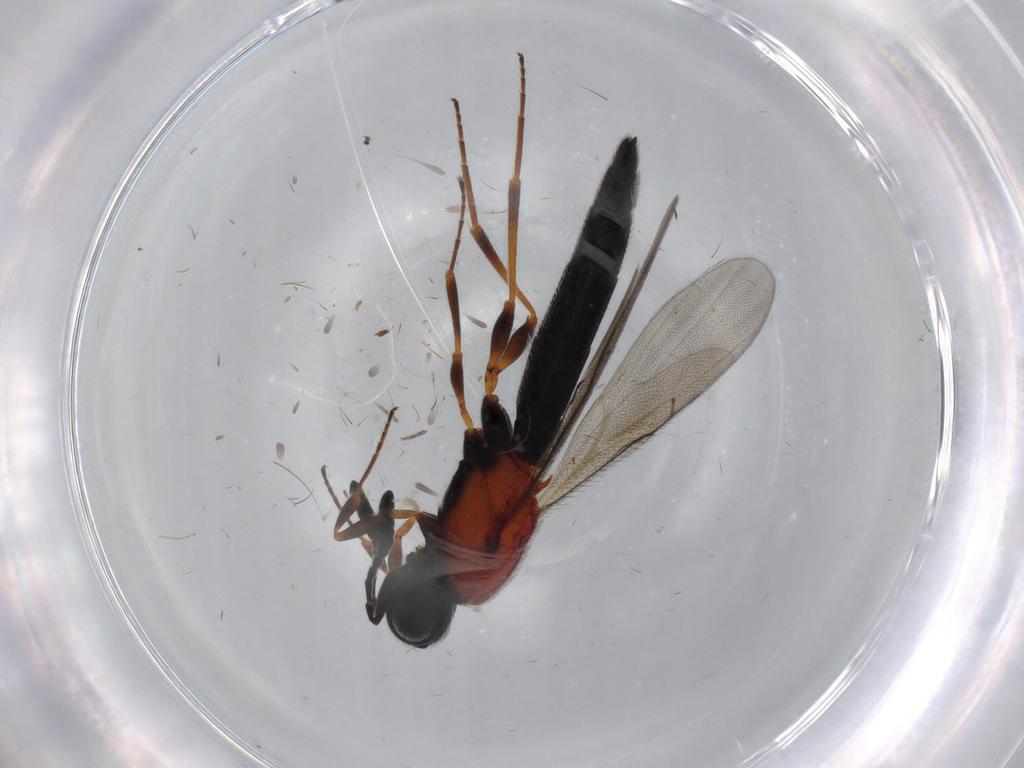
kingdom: Animalia
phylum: Arthropoda
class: Insecta
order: Hymenoptera
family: Scelionidae
